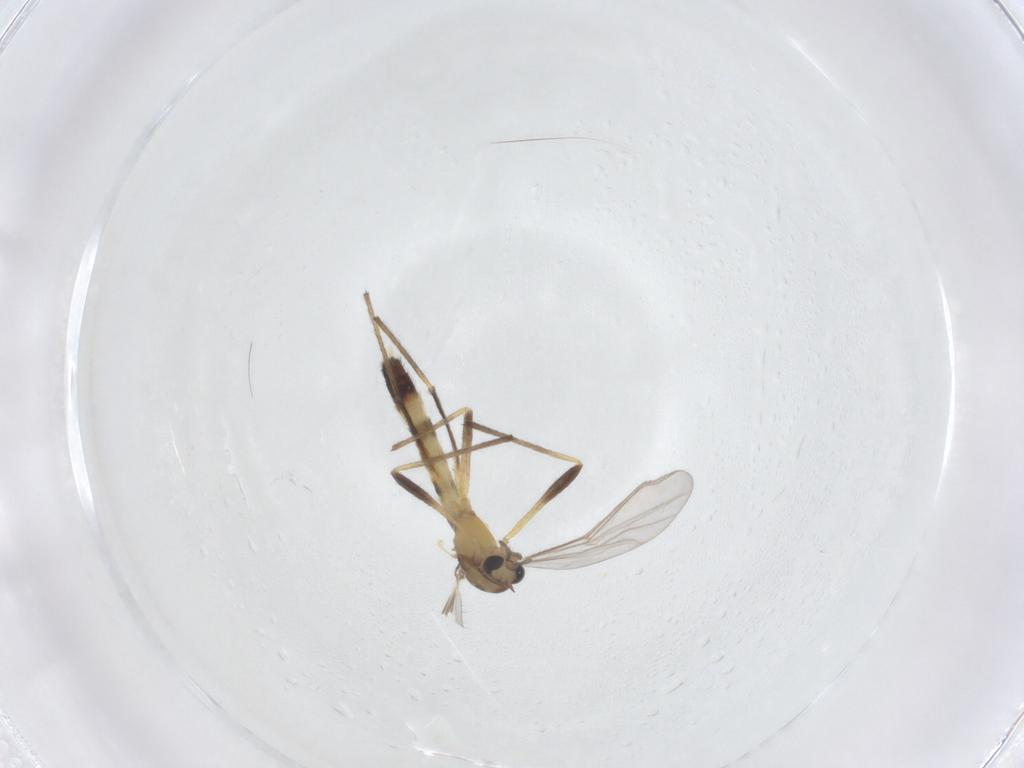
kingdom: Animalia
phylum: Arthropoda
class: Insecta
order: Diptera
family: Chironomidae
